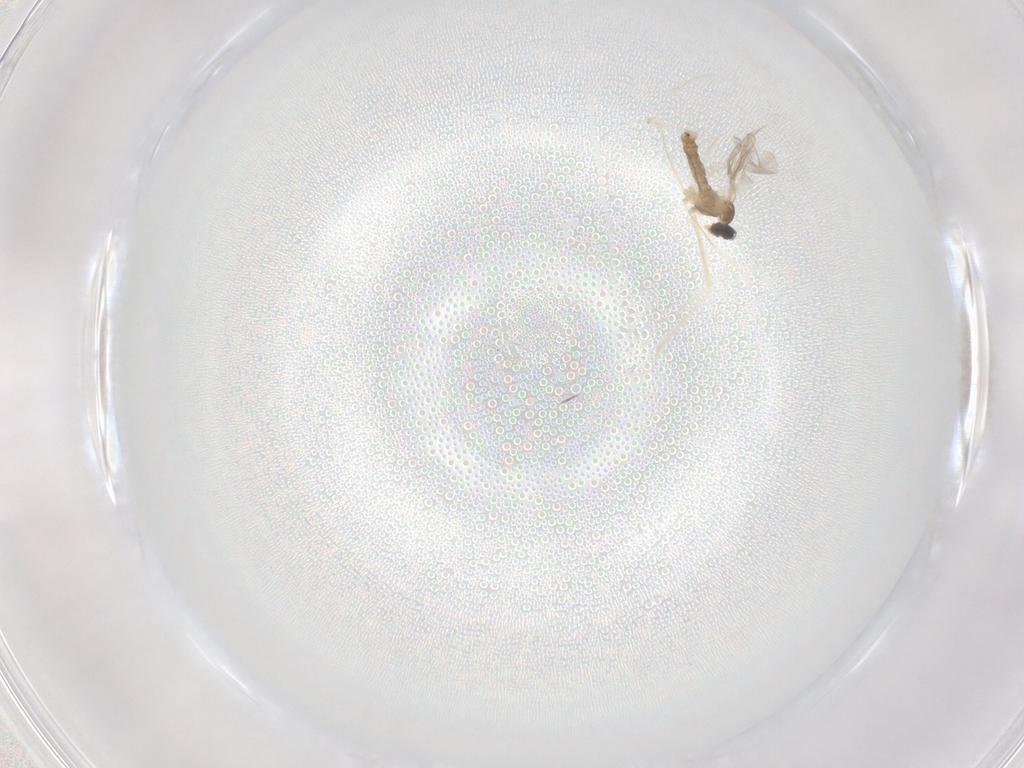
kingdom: Animalia
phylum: Arthropoda
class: Insecta
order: Diptera
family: Cecidomyiidae
